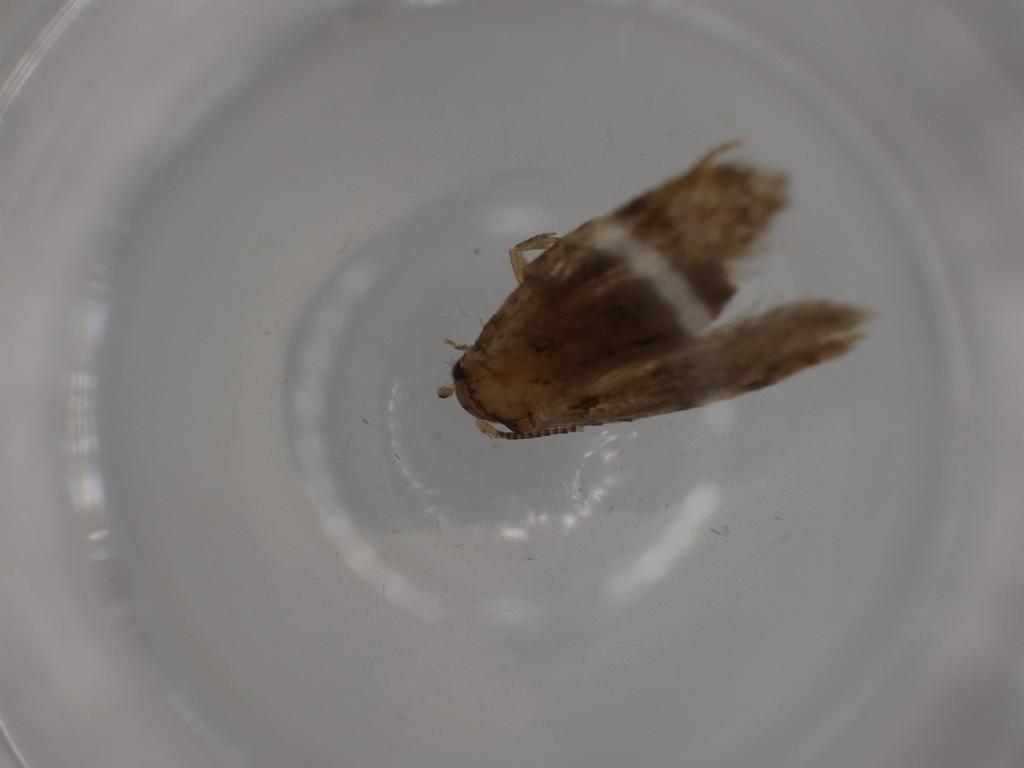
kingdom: Animalia
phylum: Arthropoda
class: Insecta
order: Lepidoptera
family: Tineidae
